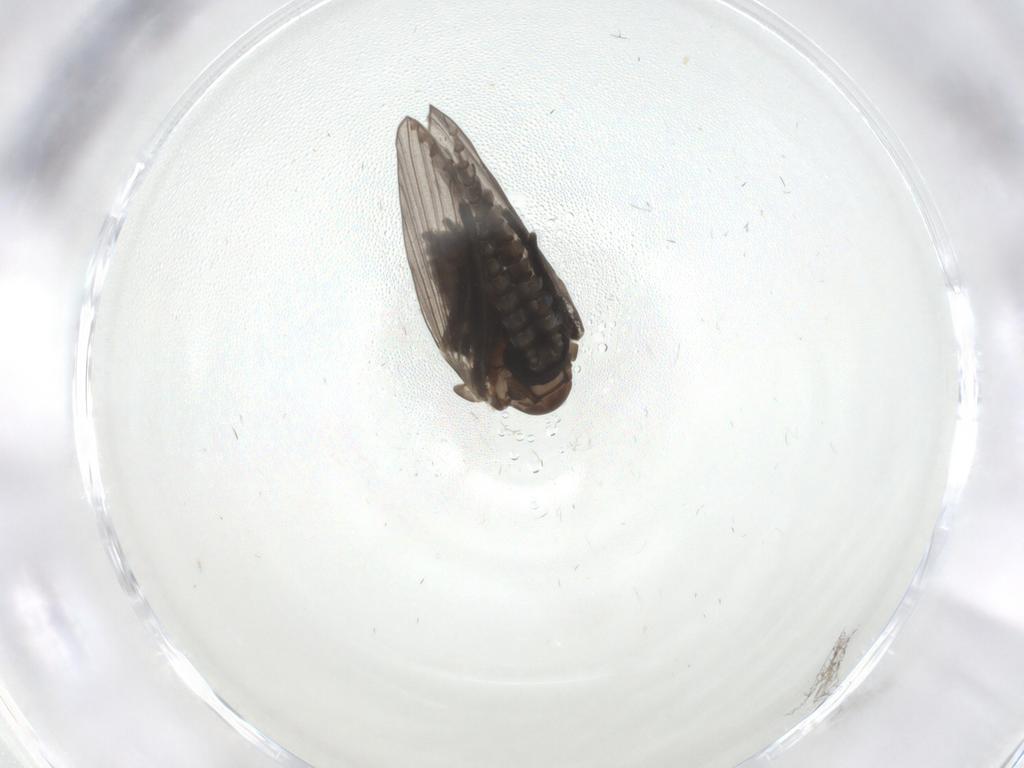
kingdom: Animalia
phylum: Arthropoda
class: Insecta
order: Diptera
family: Psychodidae
